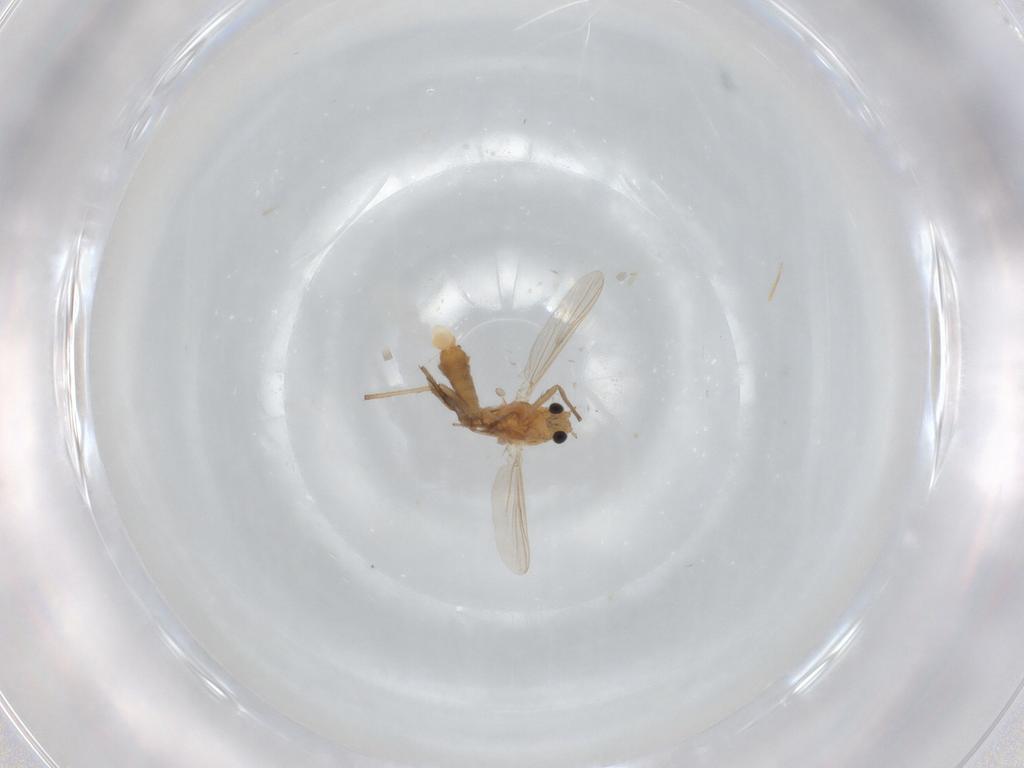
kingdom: Animalia
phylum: Arthropoda
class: Insecta
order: Diptera
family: Chironomidae
